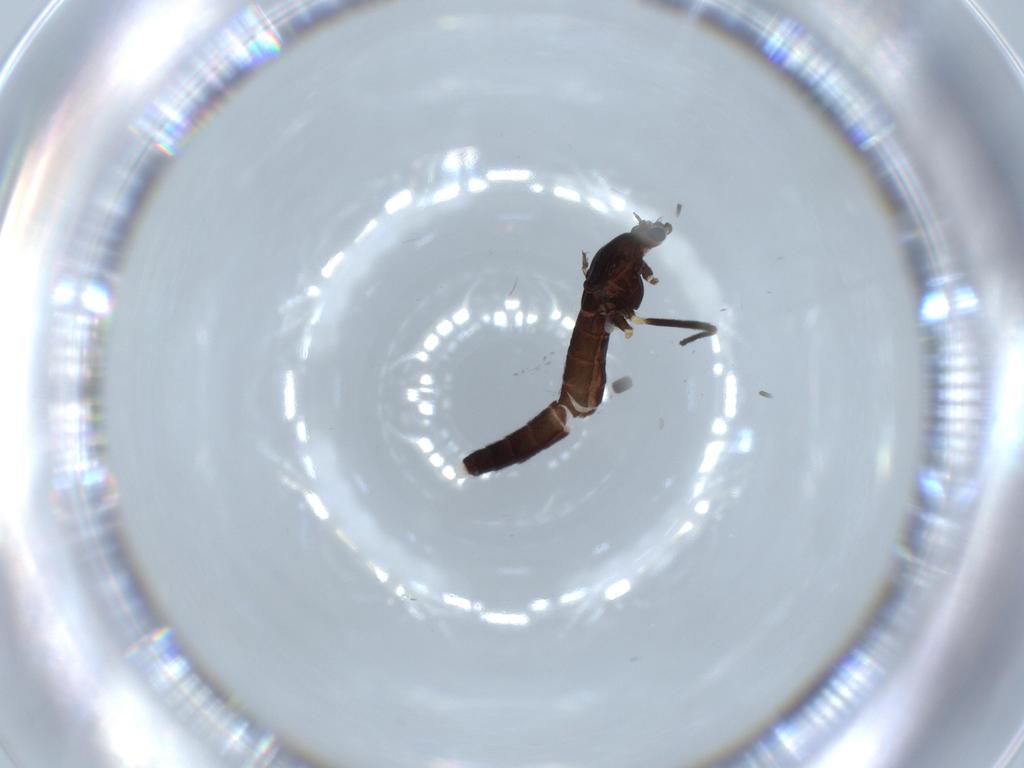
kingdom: Animalia
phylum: Arthropoda
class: Insecta
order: Diptera
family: Chironomidae
